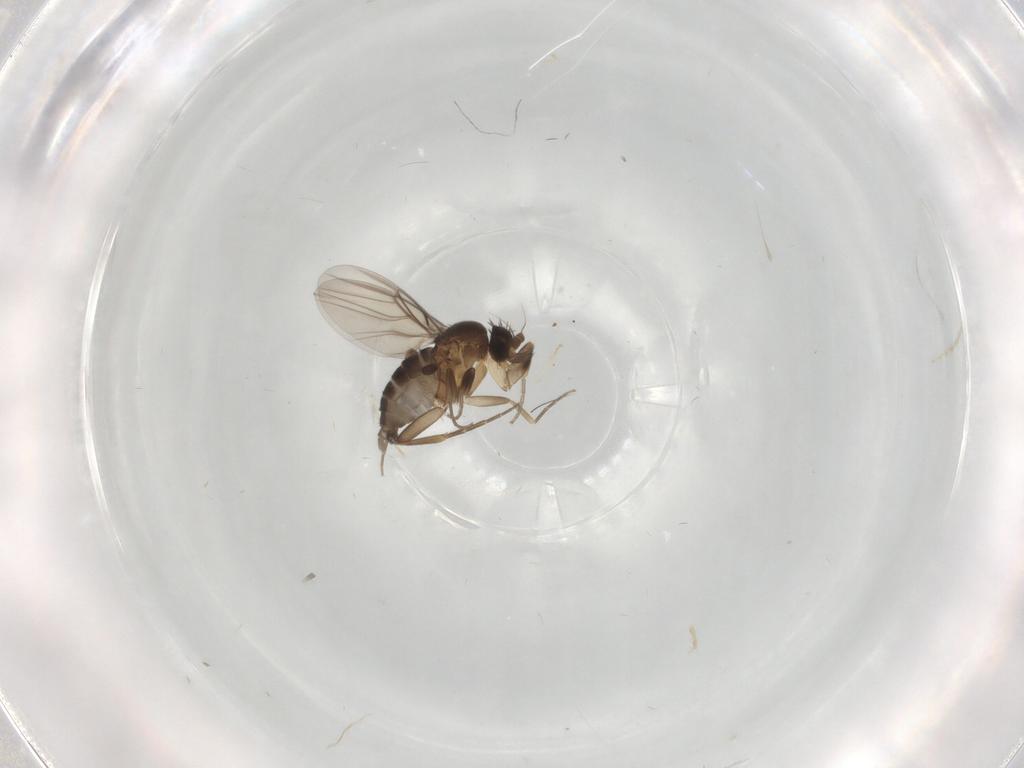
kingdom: Animalia
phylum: Arthropoda
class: Insecta
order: Diptera
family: Phoridae
